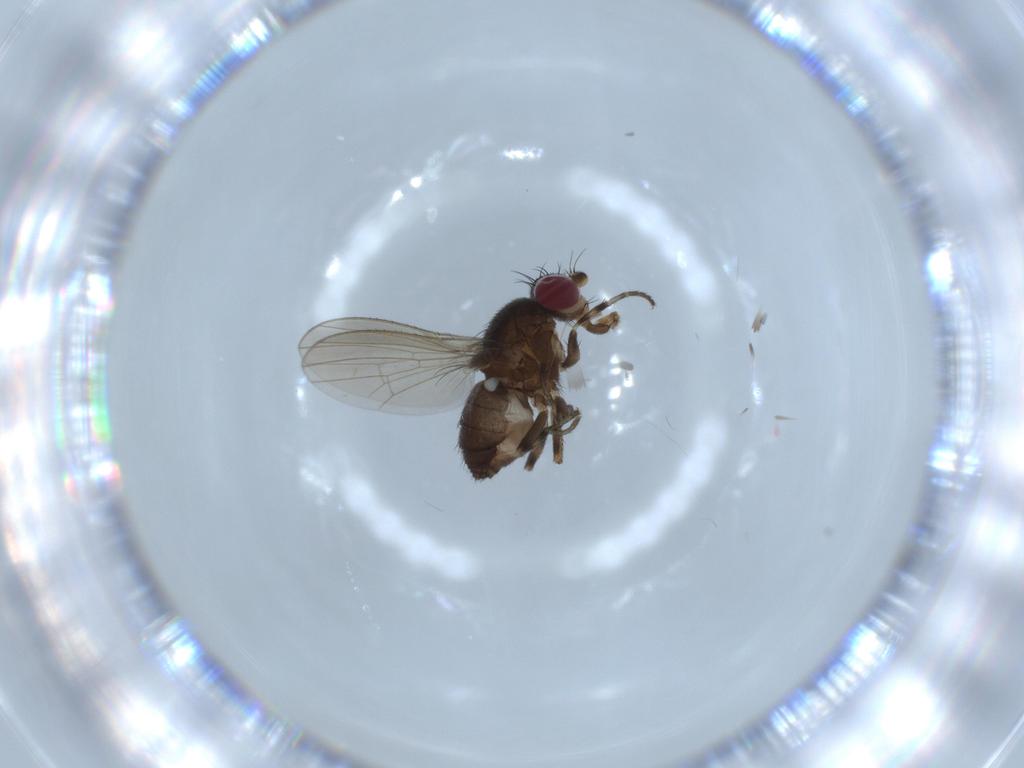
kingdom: Animalia
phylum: Arthropoda
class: Insecta
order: Diptera
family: Heleomyzidae
